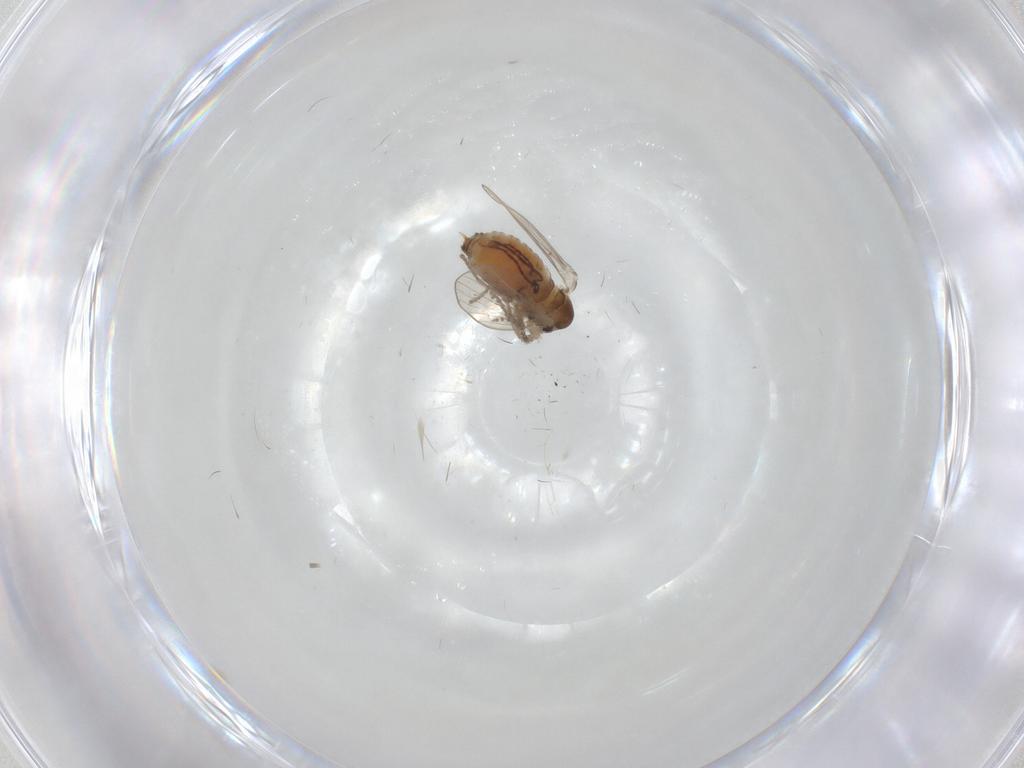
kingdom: Animalia
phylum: Arthropoda
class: Insecta
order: Diptera
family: Psychodidae
